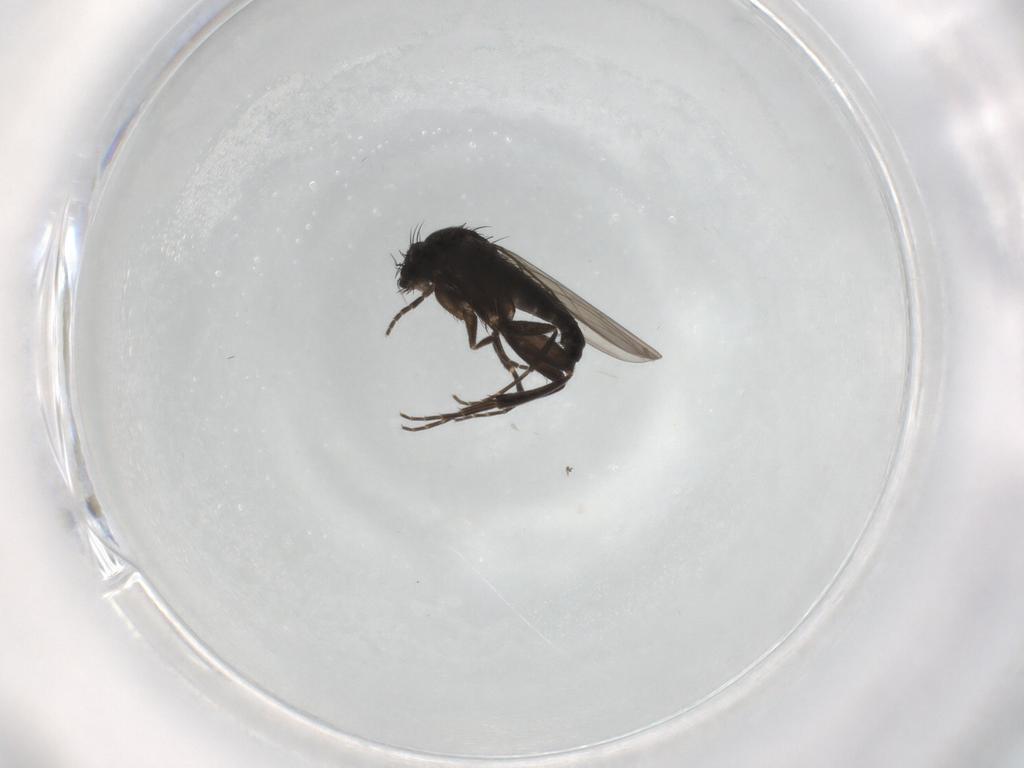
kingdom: Animalia
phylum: Arthropoda
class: Insecta
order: Diptera
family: Phoridae
